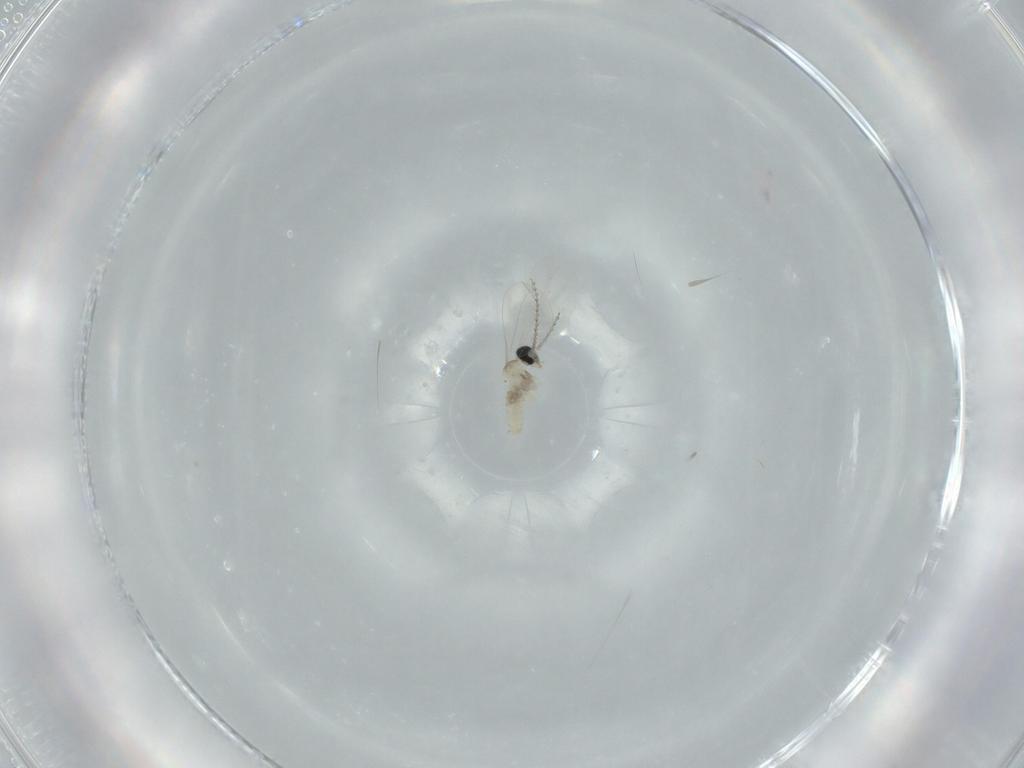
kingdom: Animalia
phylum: Arthropoda
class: Insecta
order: Diptera
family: Cecidomyiidae
